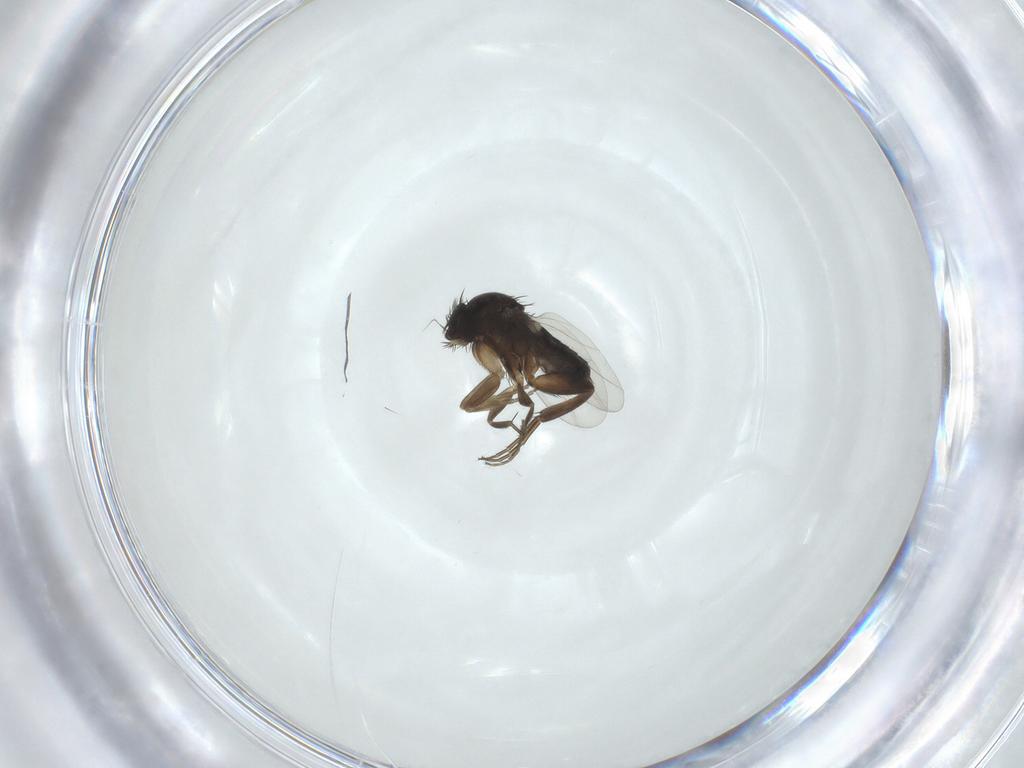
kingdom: Animalia
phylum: Arthropoda
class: Insecta
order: Diptera
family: Phoridae
